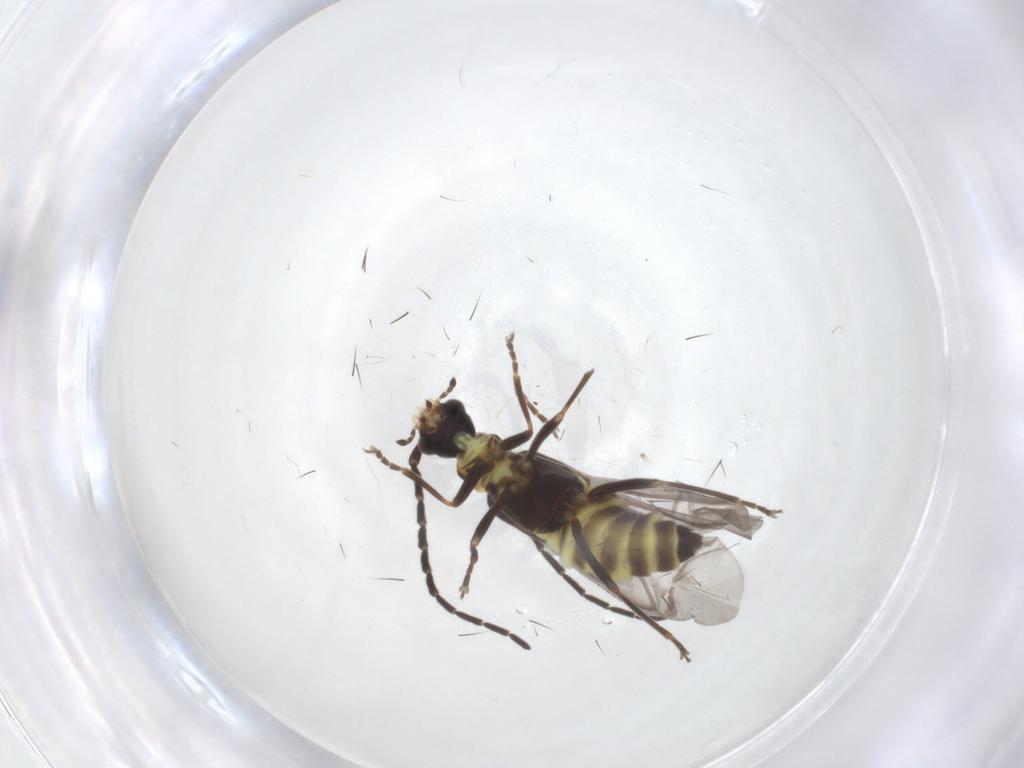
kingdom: Animalia
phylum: Arthropoda
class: Insecta
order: Coleoptera
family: Cantharidae
